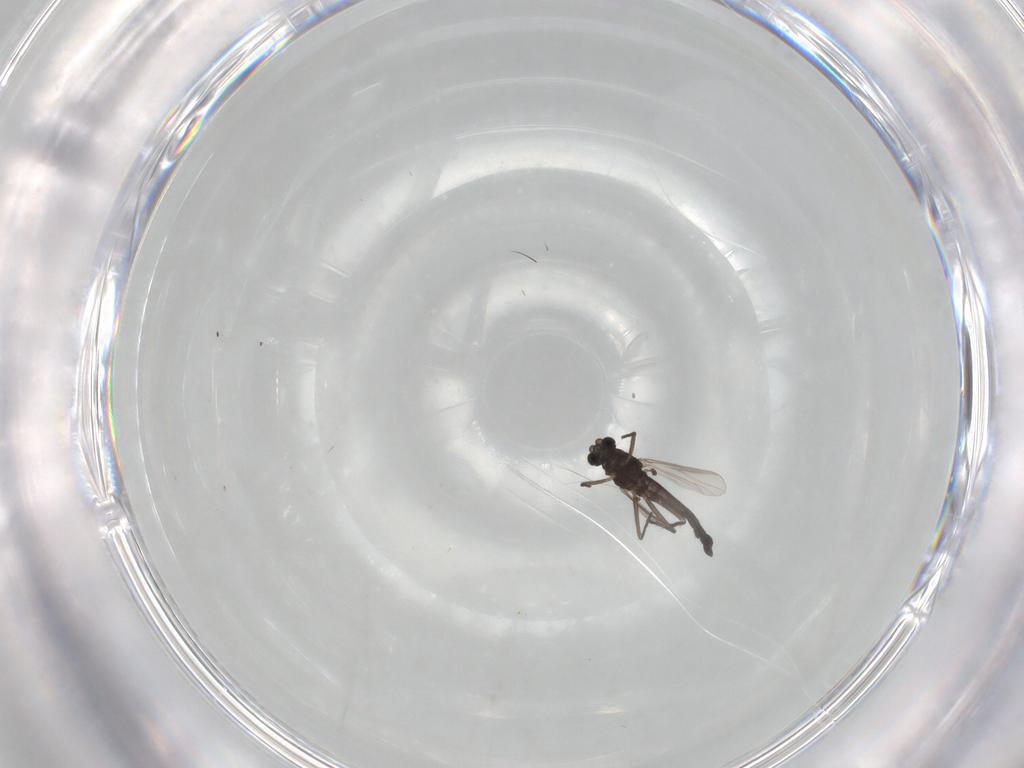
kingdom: Animalia
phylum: Arthropoda
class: Insecta
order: Diptera
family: Chironomidae
